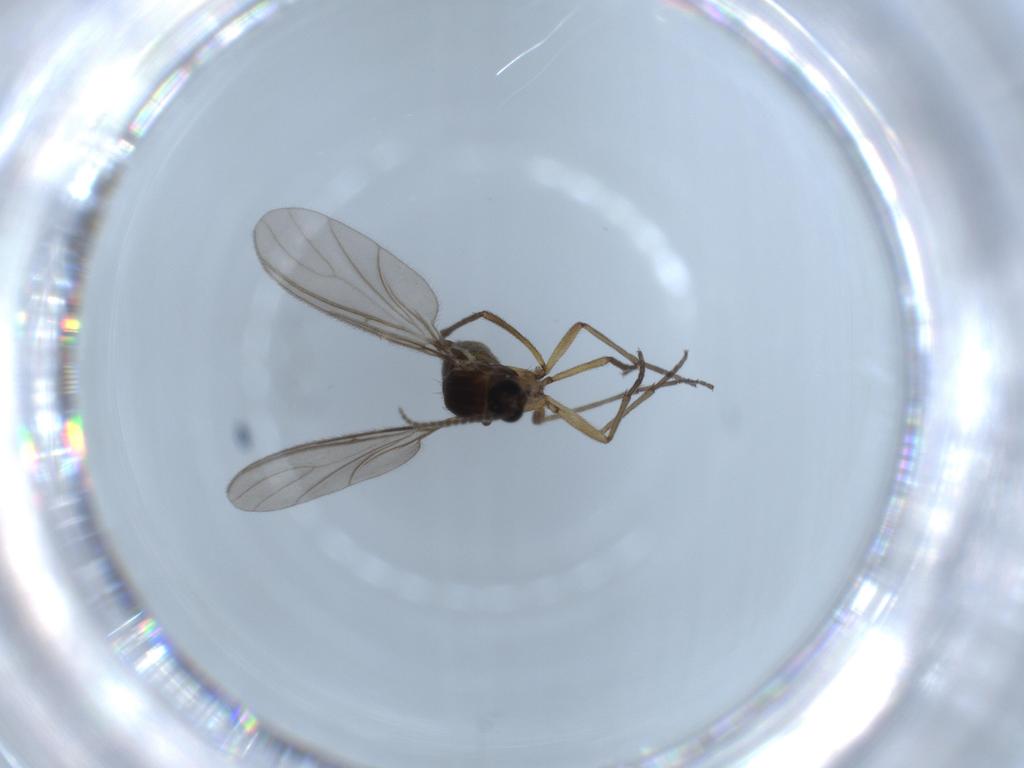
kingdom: Animalia
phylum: Arthropoda
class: Insecta
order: Diptera
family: Sciaridae
